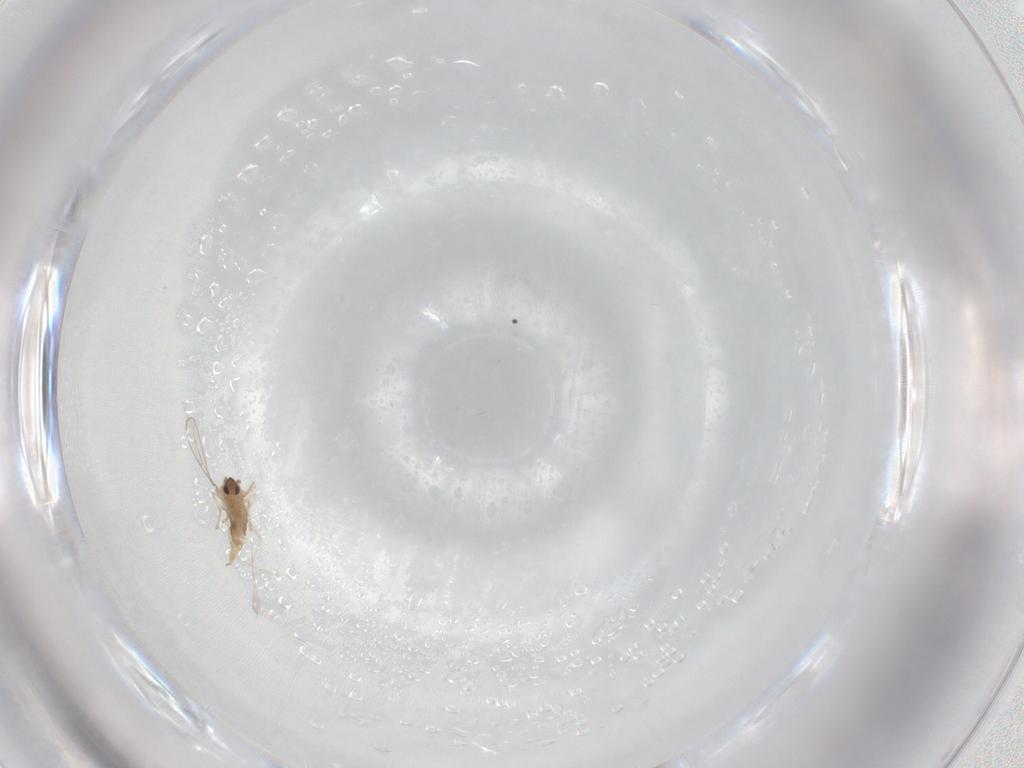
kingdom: Animalia
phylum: Arthropoda
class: Insecta
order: Diptera
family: Cecidomyiidae
